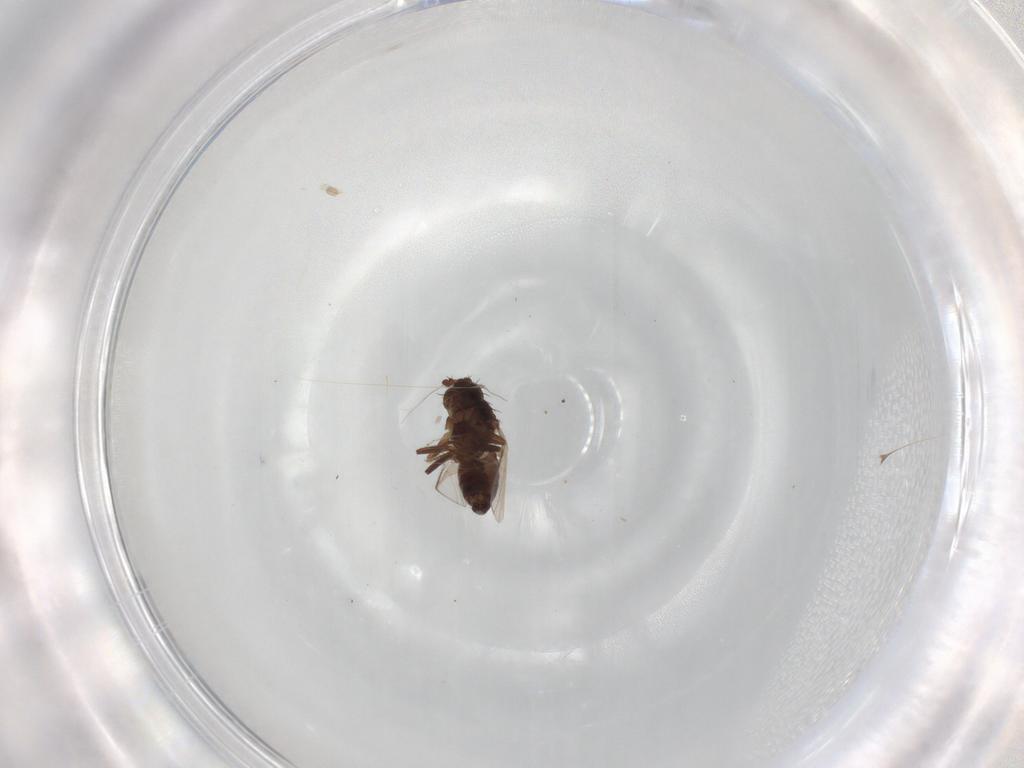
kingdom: Animalia
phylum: Arthropoda
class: Insecta
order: Diptera
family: Sphaeroceridae
